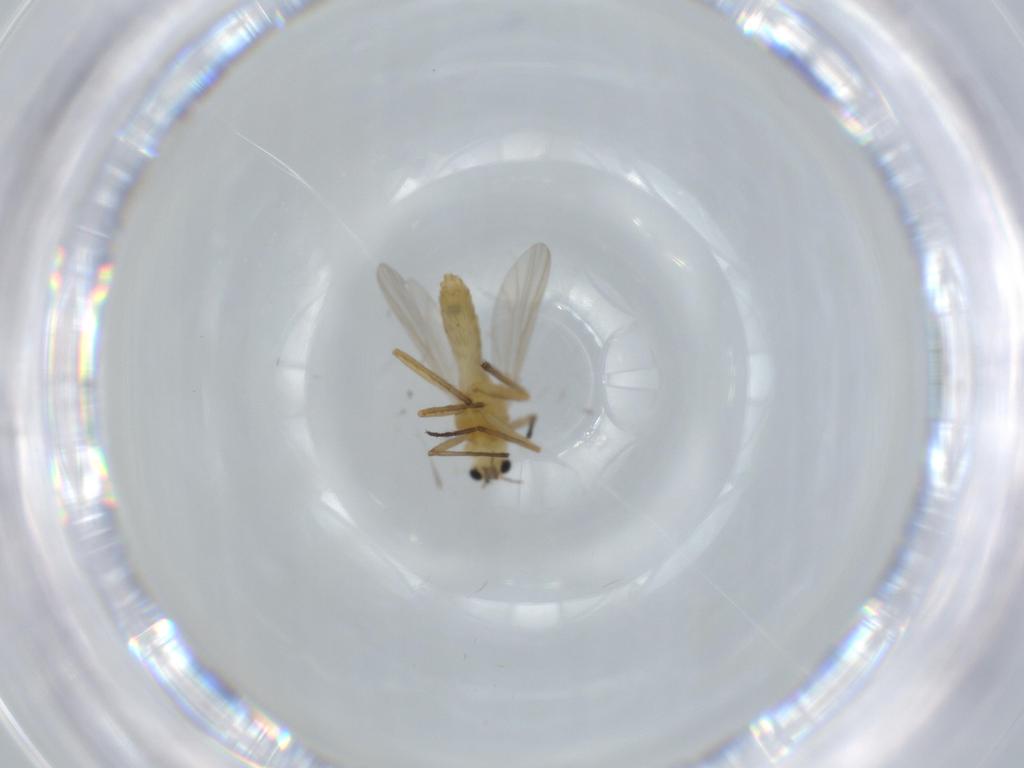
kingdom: Animalia
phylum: Arthropoda
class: Insecta
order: Diptera
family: Chironomidae
